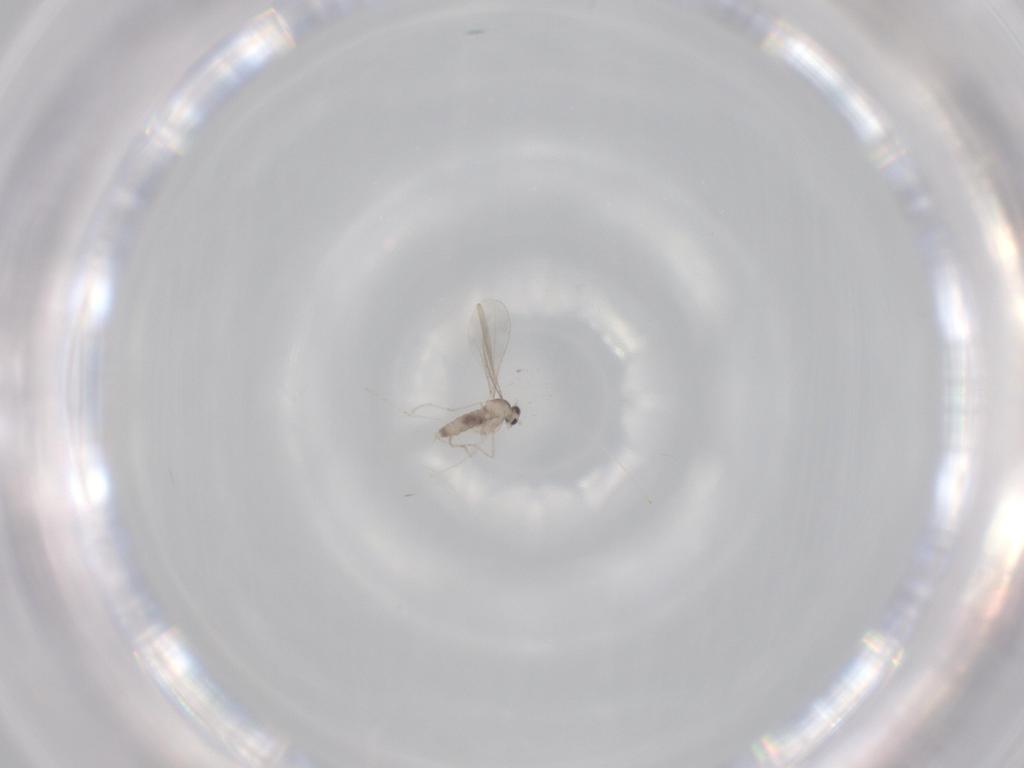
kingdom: Animalia
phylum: Arthropoda
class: Insecta
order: Diptera
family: Cecidomyiidae
